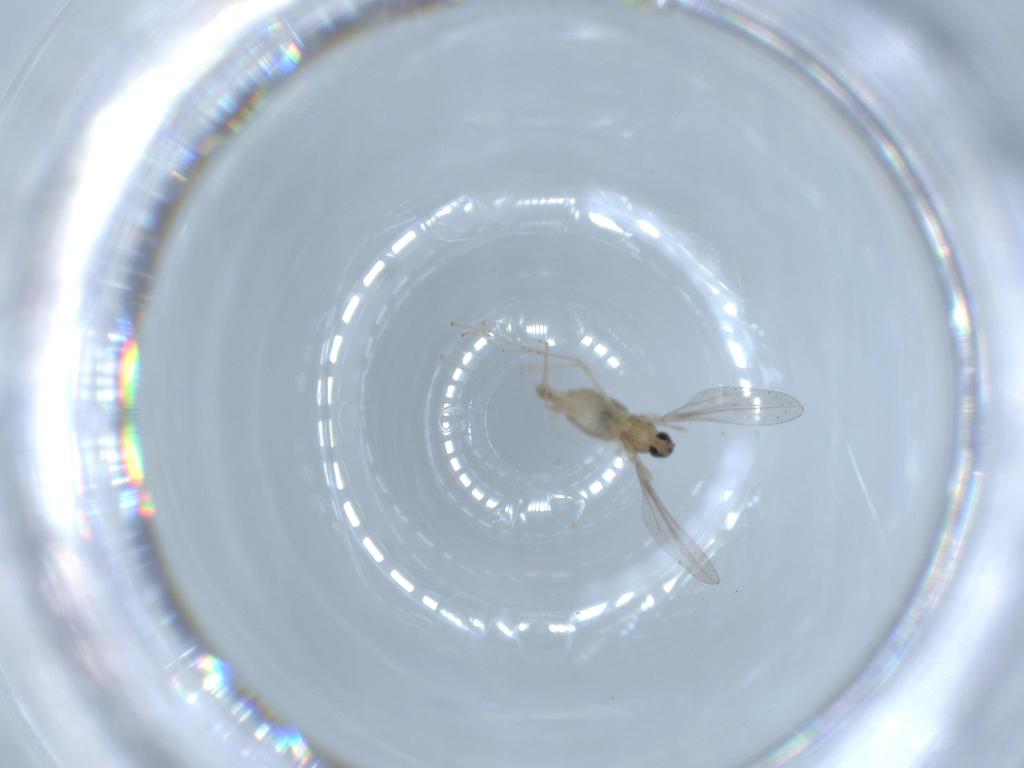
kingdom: Animalia
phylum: Arthropoda
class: Insecta
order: Diptera
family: Cecidomyiidae
